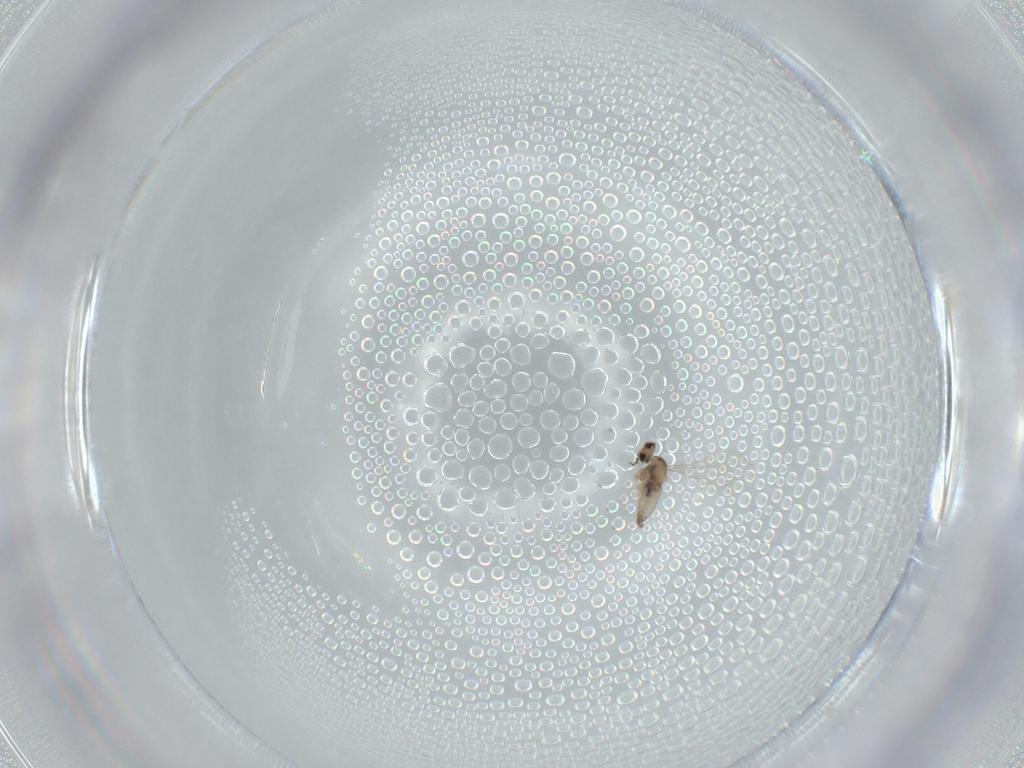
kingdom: Animalia
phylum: Arthropoda
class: Insecta
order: Diptera
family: Cecidomyiidae
